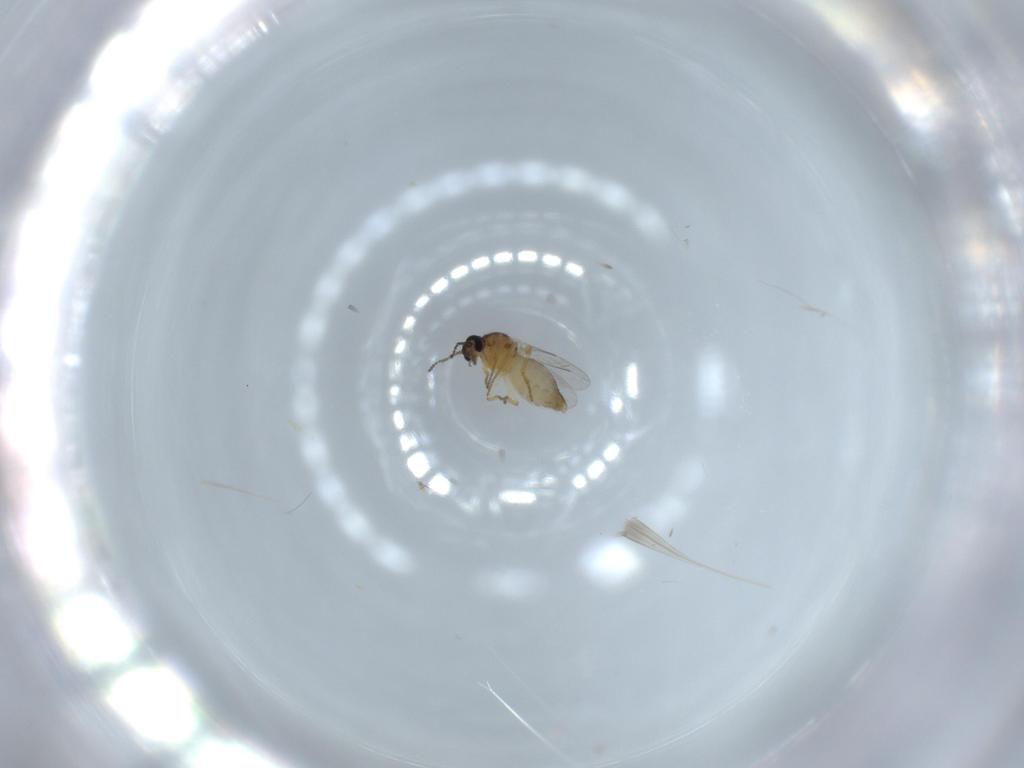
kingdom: Animalia
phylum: Arthropoda
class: Insecta
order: Diptera
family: Ceratopogonidae
